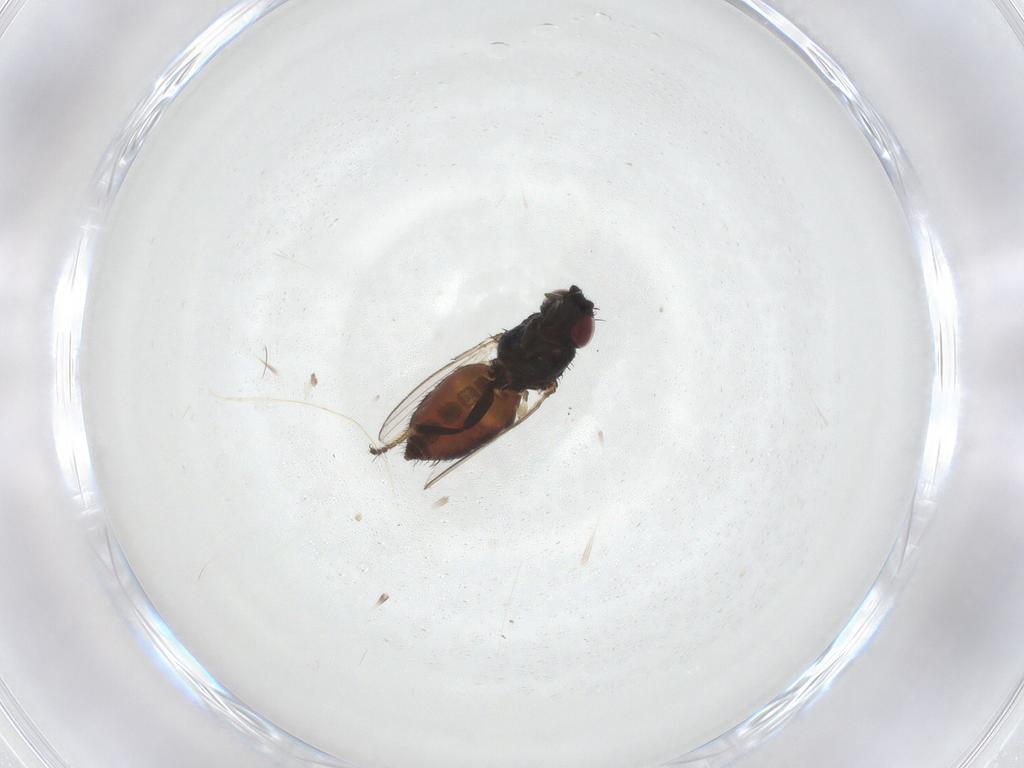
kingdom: Animalia
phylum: Arthropoda
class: Insecta
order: Diptera
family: Milichiidae
